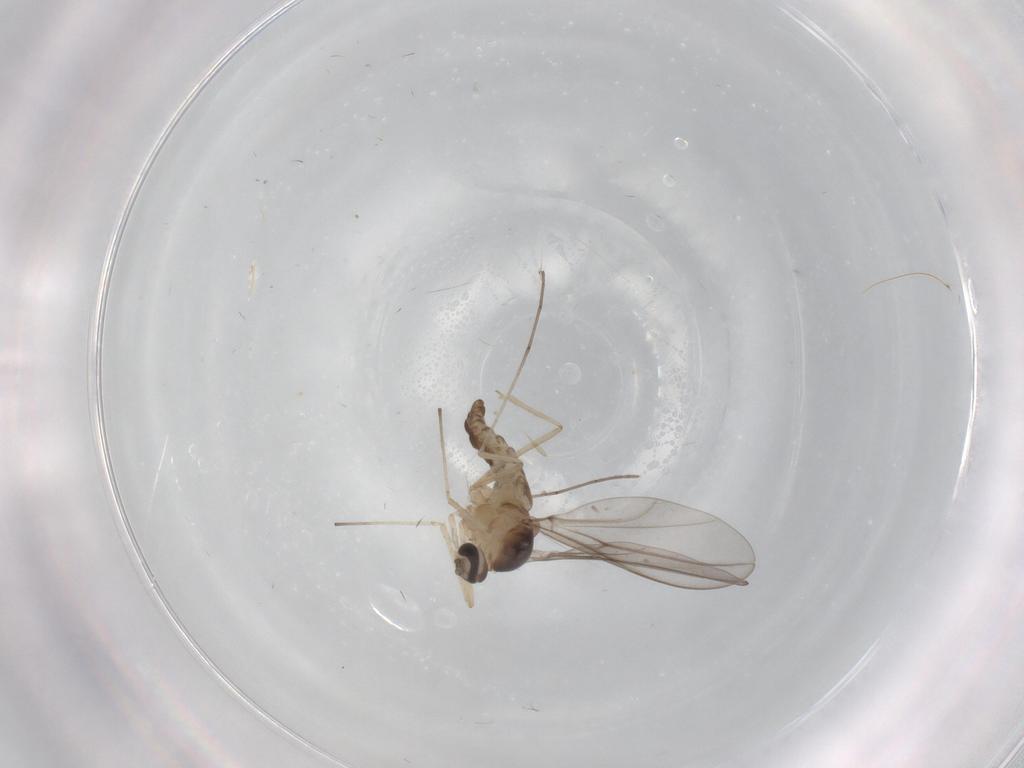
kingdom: Animalia
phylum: Arthropoda
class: Insecta
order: Diptera
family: Cecidomyiidae
